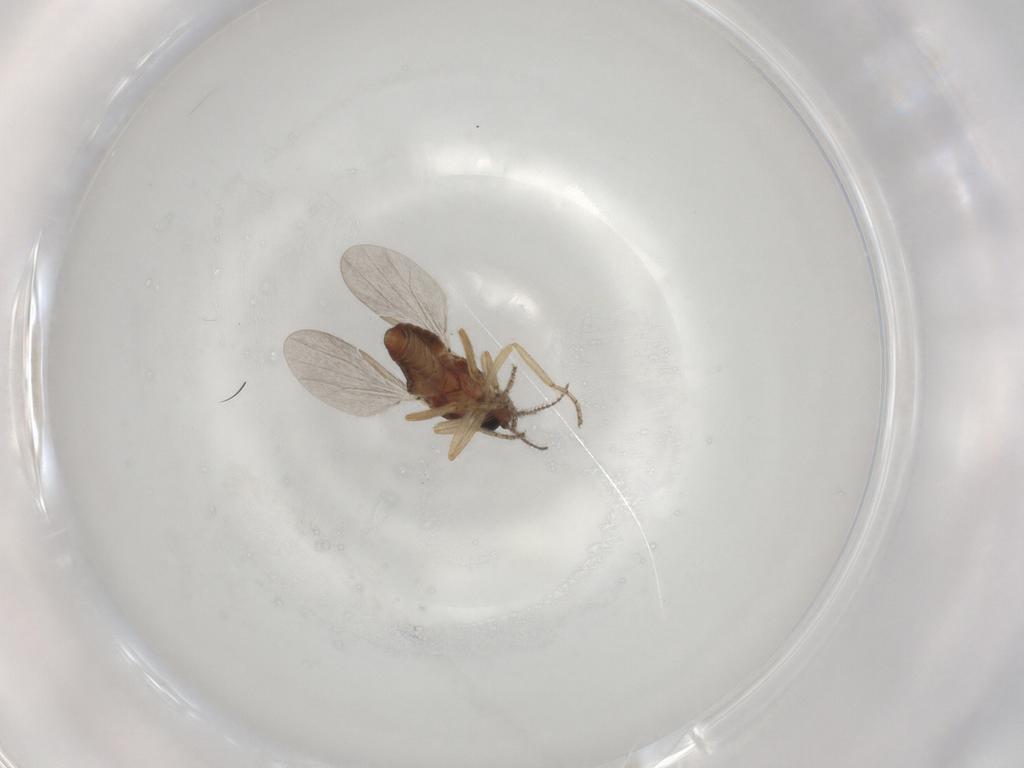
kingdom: Animalia
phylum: Arthropoda
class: Insecta
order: Diptera
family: Ceratopogonidae
